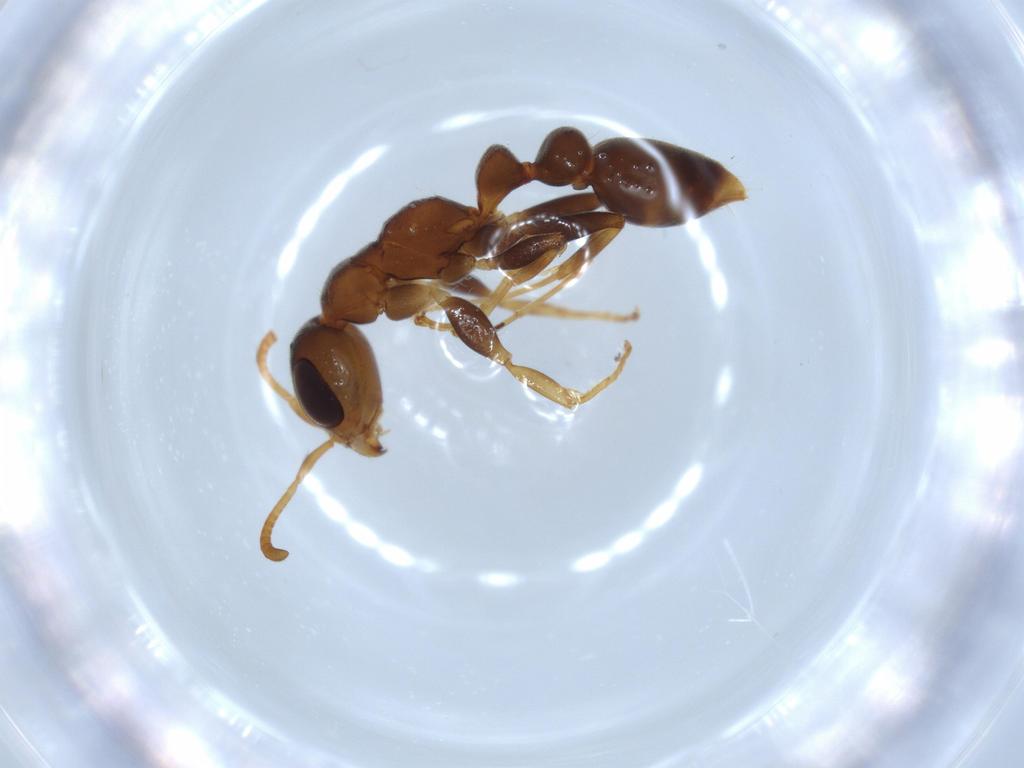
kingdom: Animalia
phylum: Arthropoda
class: Insecta
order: Hymenoptera
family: Formicidae
